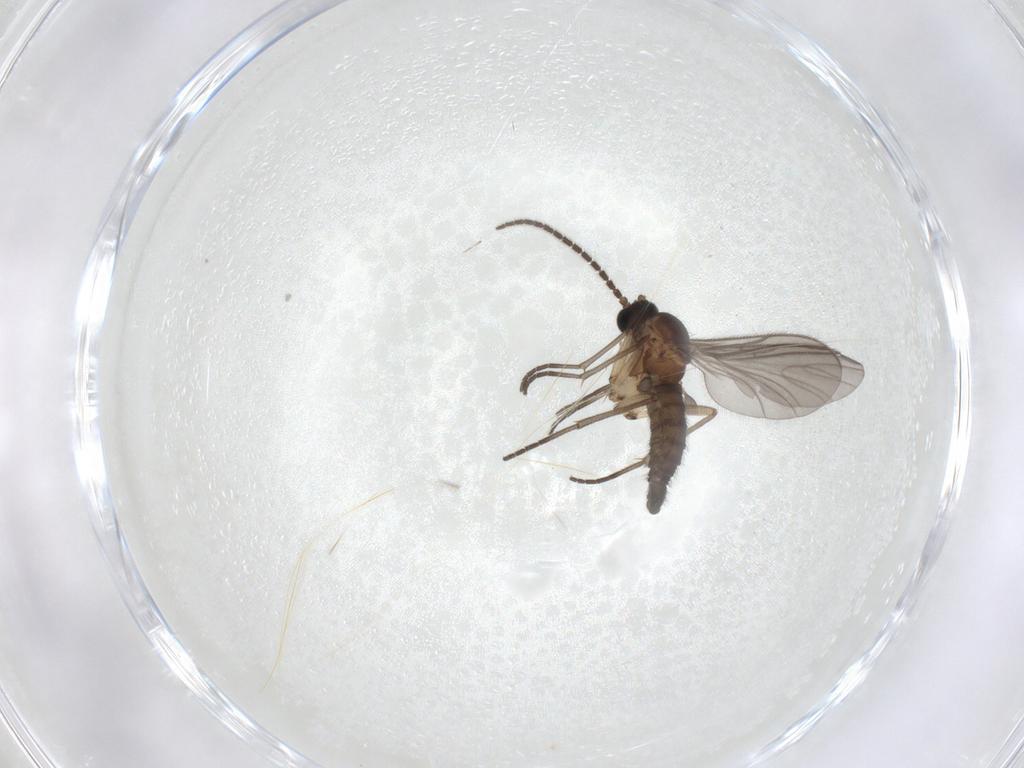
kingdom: Animalia
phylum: Arthropoda
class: Insecta
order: Diptera
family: Sciaridae
